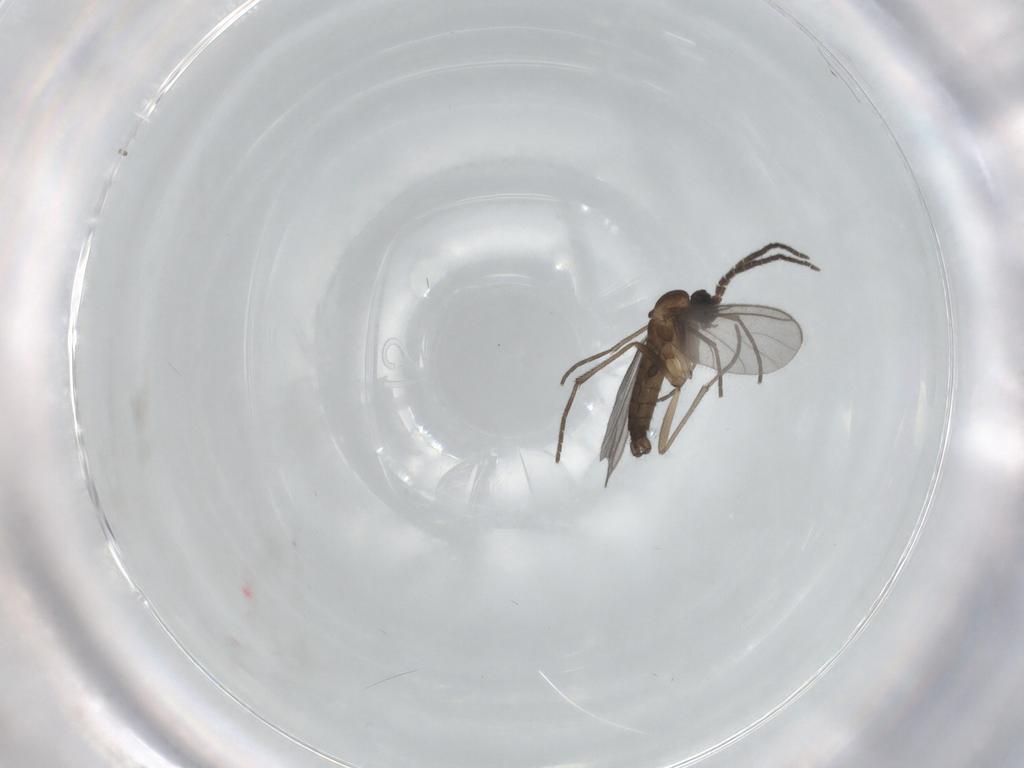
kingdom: Animalia
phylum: Arthropoda
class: Insecta
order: Diptera
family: Sciaridae
